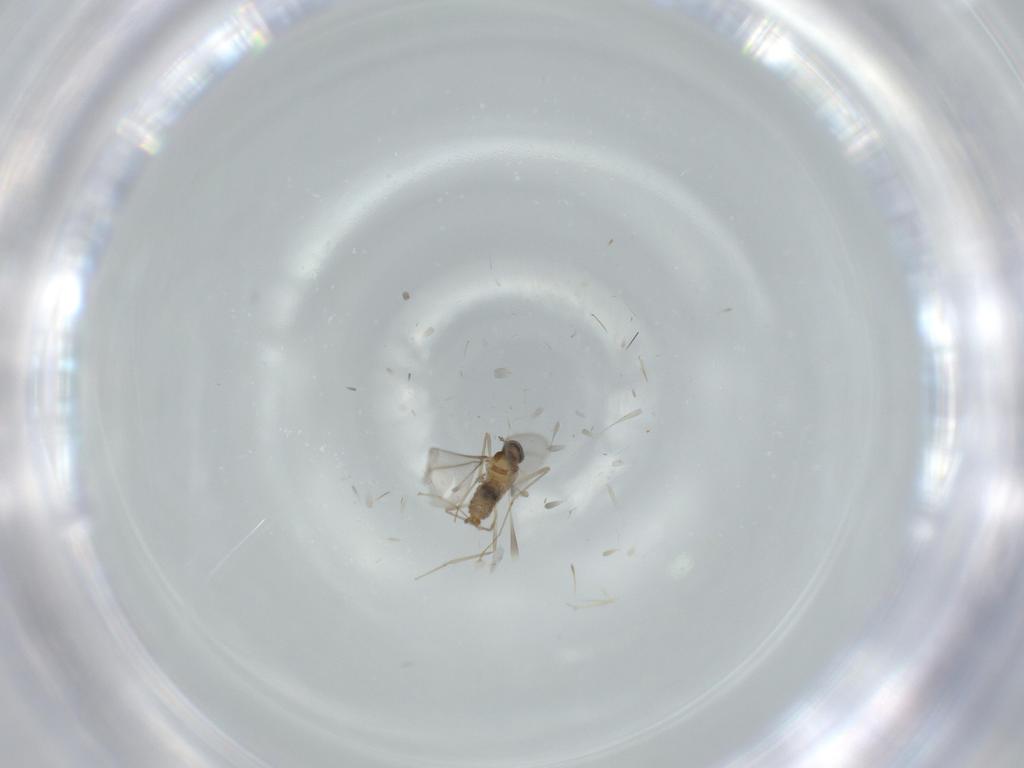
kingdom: Animalia
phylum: Arthropoda
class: Insecta
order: Diptera
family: Cecidomyiidae
